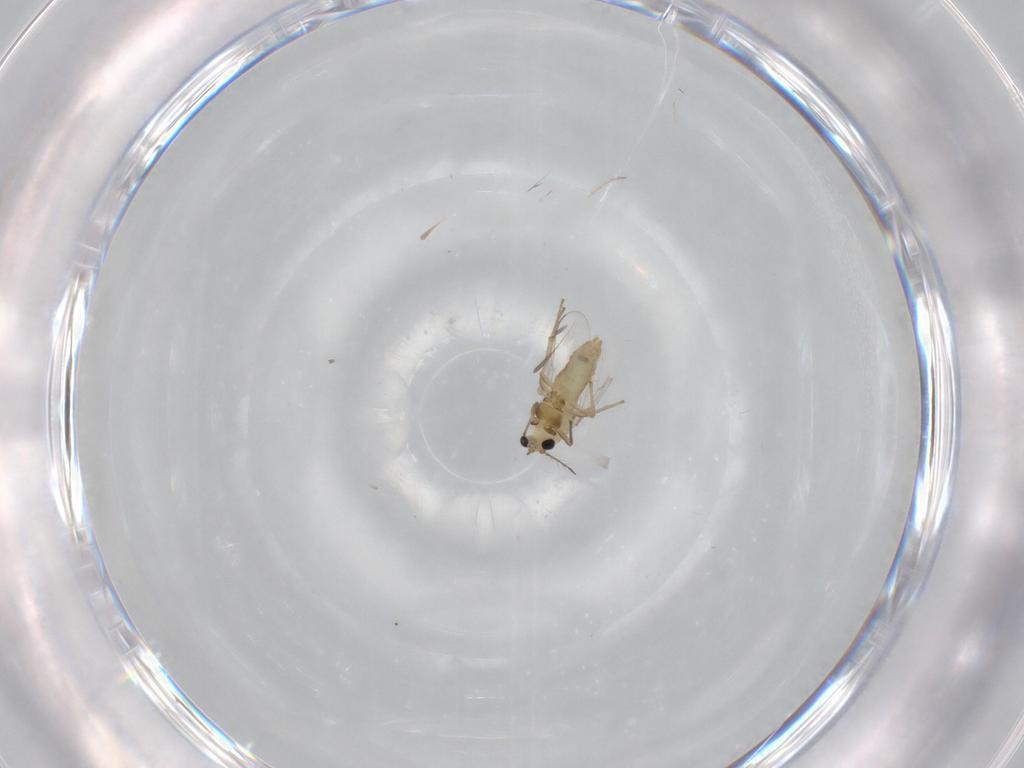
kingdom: Animalia
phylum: Arthropoda
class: Insecta
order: Diptera
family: Chironomidae
